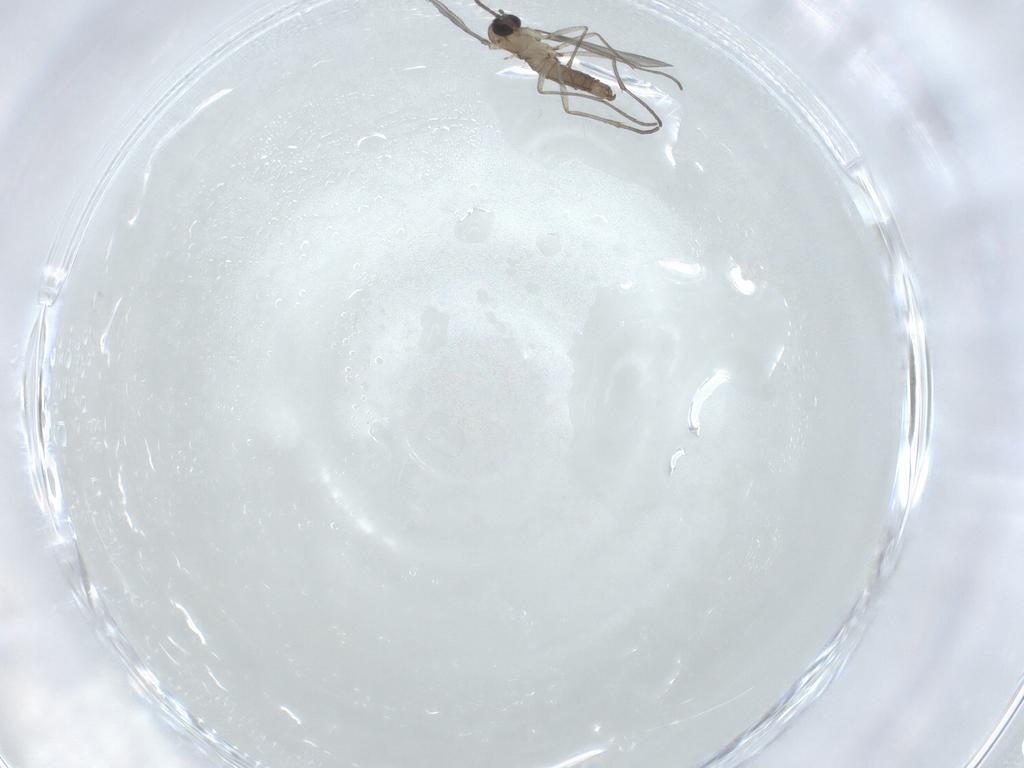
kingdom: Animalia
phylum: Arthropoda
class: Insecta
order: Diptera
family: Sciaridae
